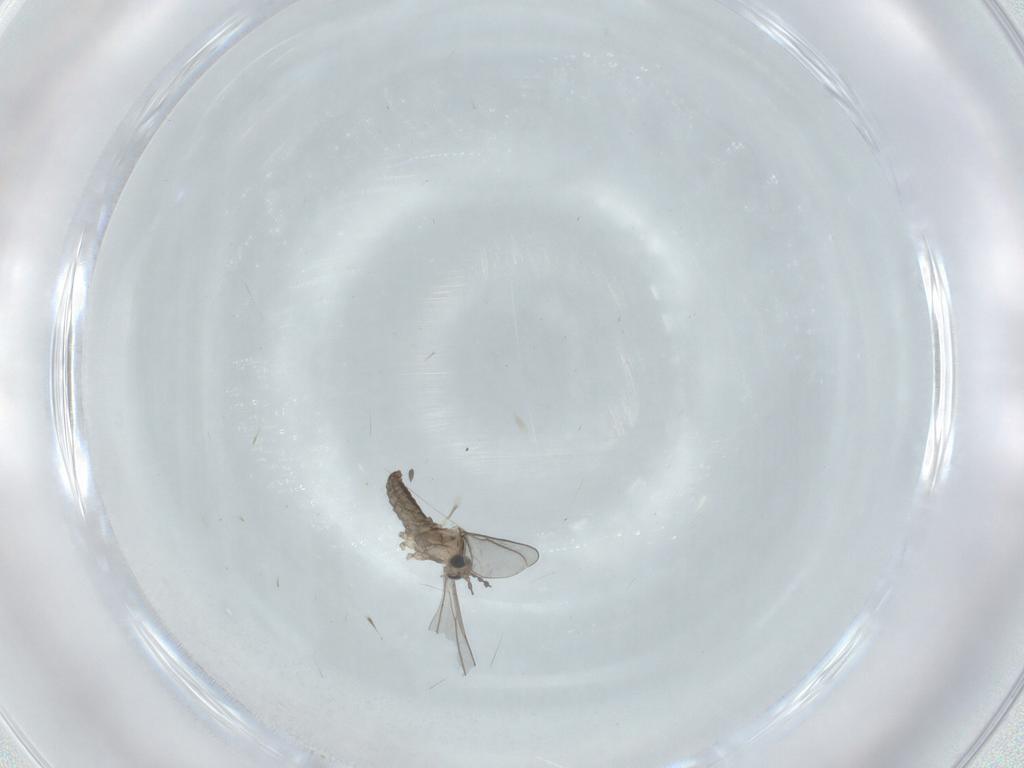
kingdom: Animalia
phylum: Arthropoda
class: Insecta
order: Diptera
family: Cecidomyiidae
